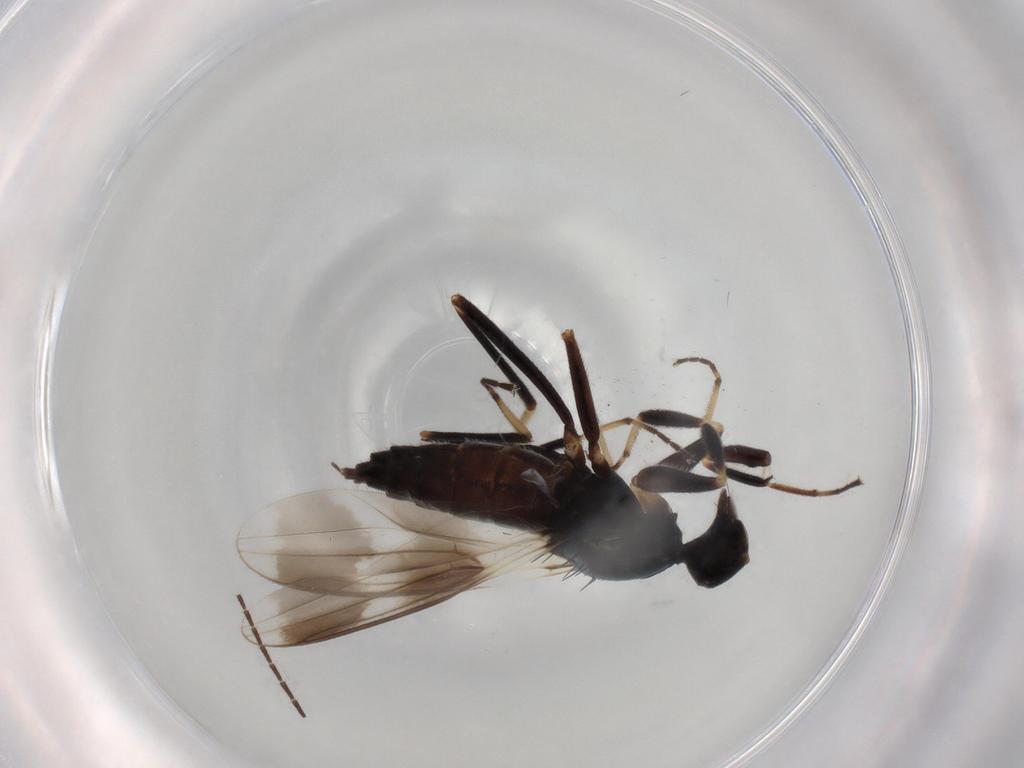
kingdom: Animalia
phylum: Arthropoda
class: Insecta
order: Diptera
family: Hybotidae
